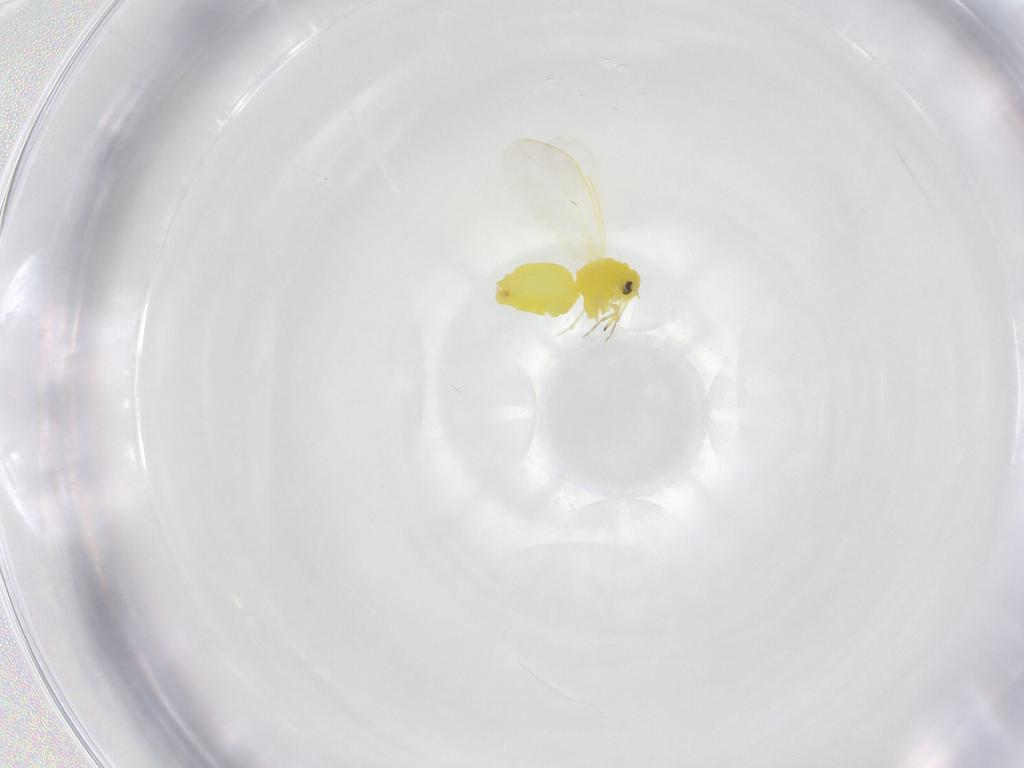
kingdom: Animalia
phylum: Arthropoda
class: Insecta
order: Hemiptera
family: Aleyrodidae
